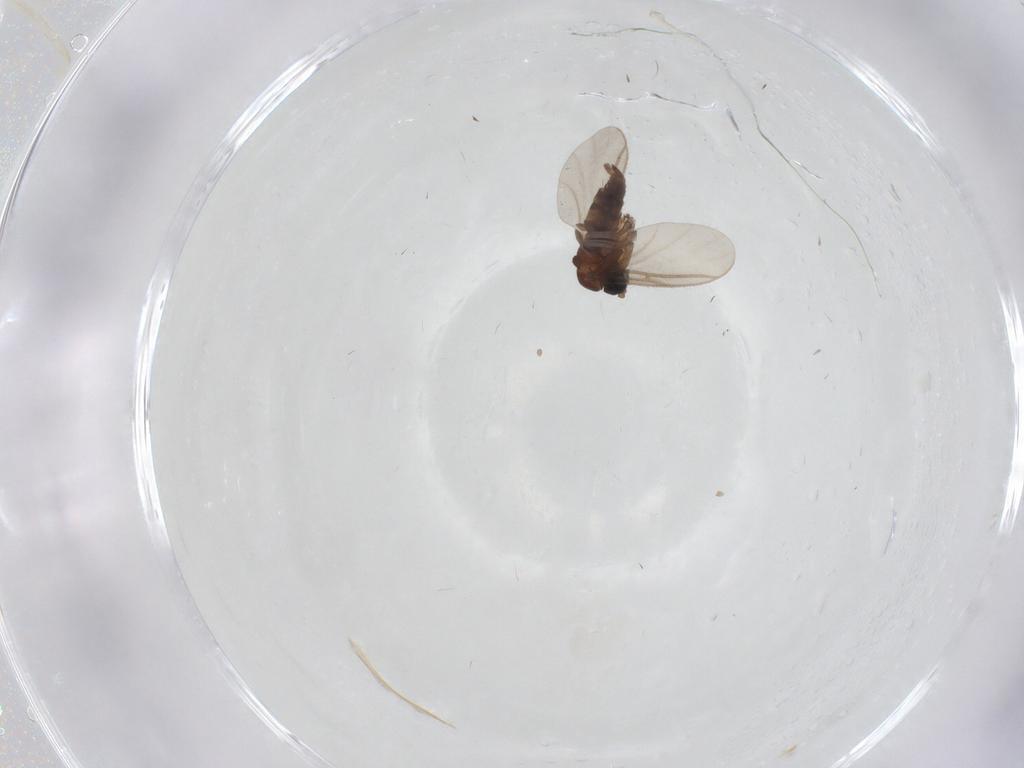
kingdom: Animalia
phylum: Arthropoda
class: Insecta
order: Diptera
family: Sciaridae
